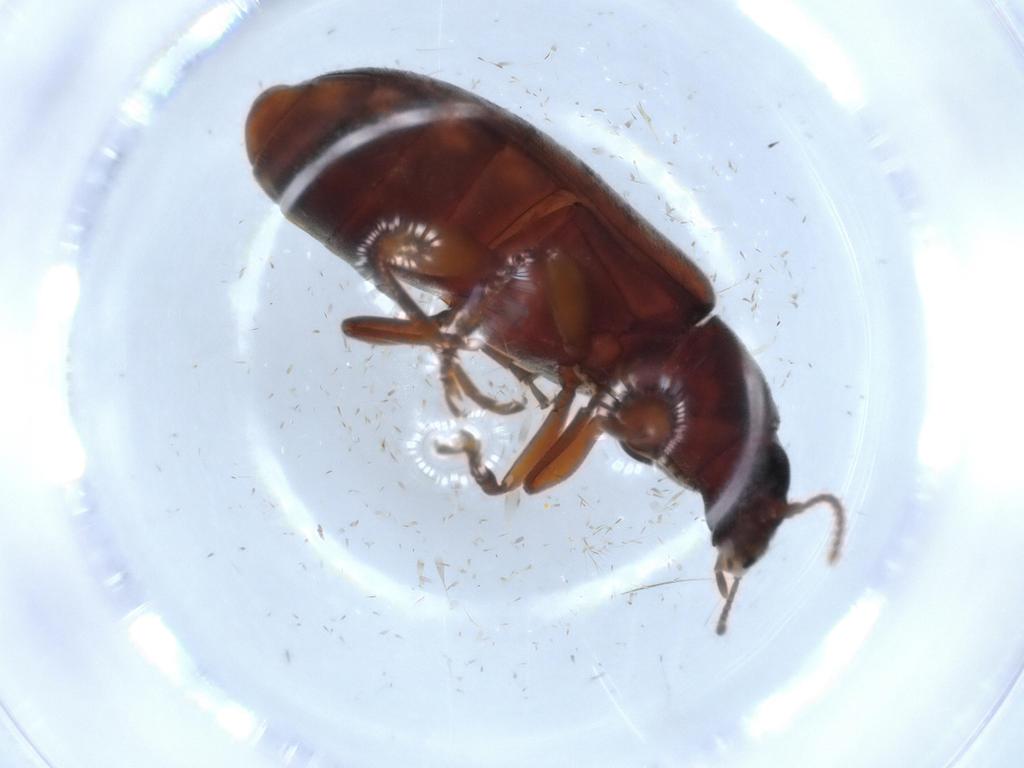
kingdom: Animalia
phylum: Arthropoda
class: Insecta
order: Coleoptera
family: Mycteridae
